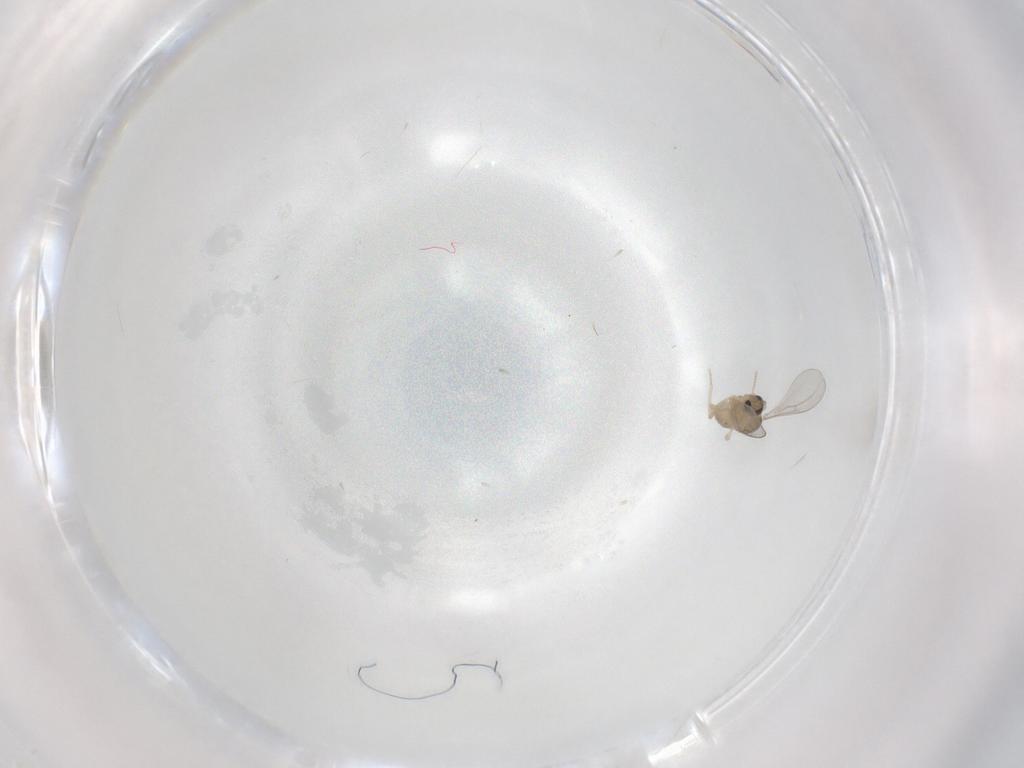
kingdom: Animalia
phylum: Arthropoda
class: Insecta
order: Diptera
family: Cecidomyiidae
